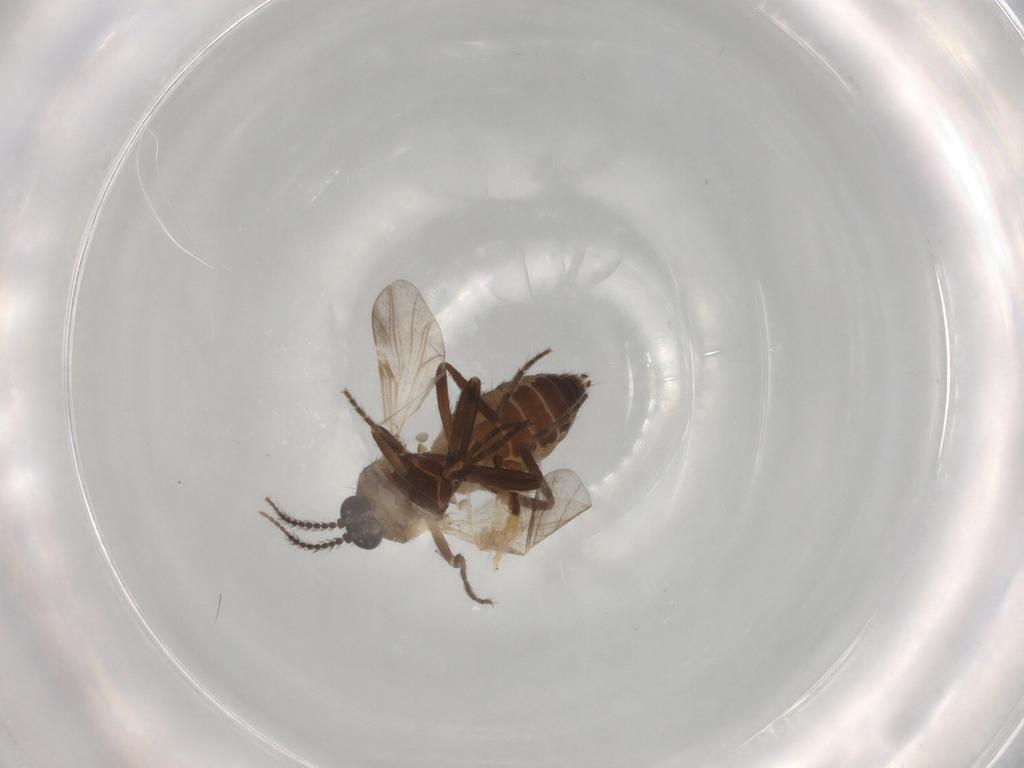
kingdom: Animalia
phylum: Arthropoda
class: Insecta
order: Diptera
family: Ceratopogonidae
